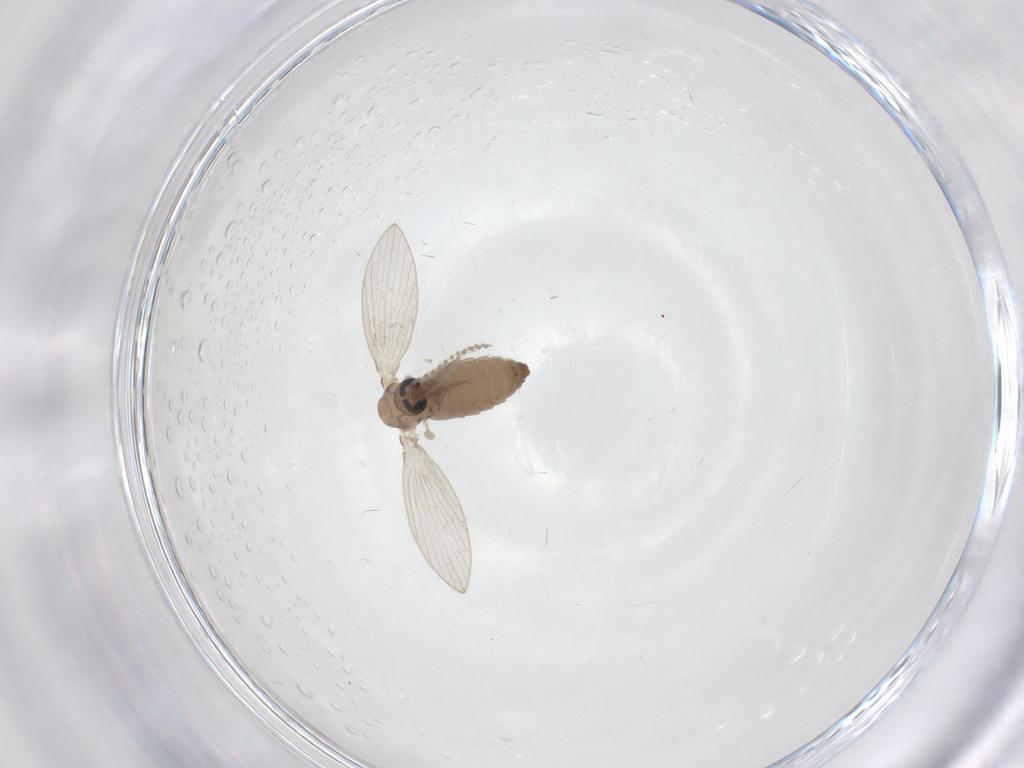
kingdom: Animalia
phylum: Arthropoda
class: Insecta
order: Diptera
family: Psychodidae
